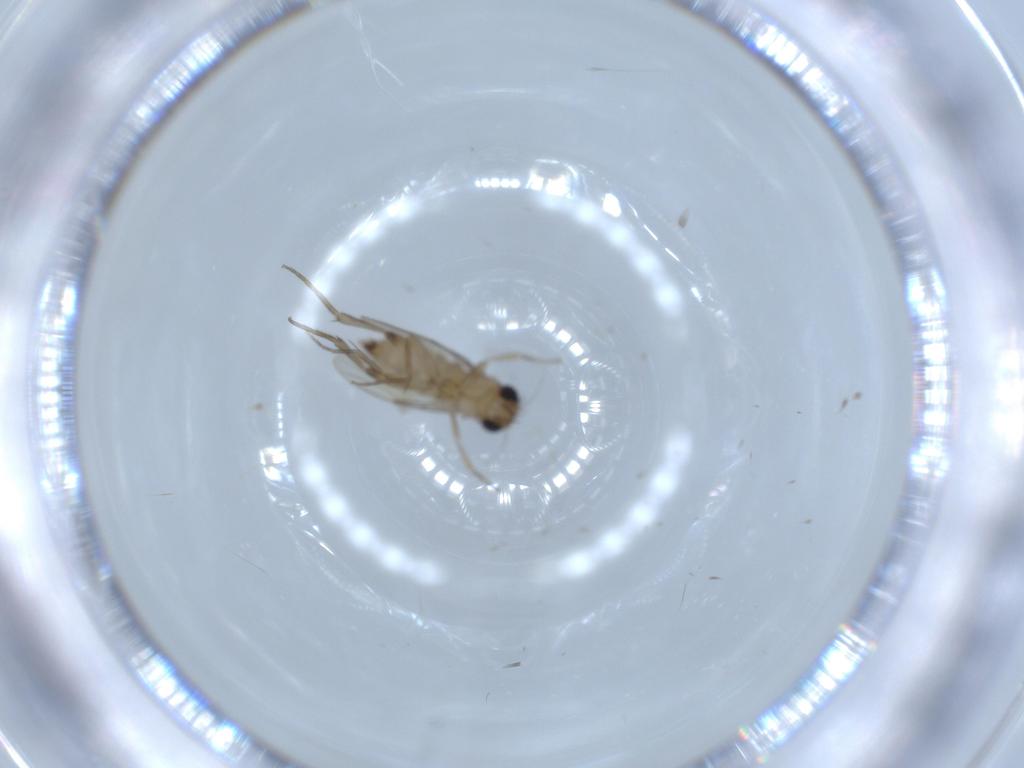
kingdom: Animalia
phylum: Arthropoda
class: Insecta
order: Diptera
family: Phoridae
